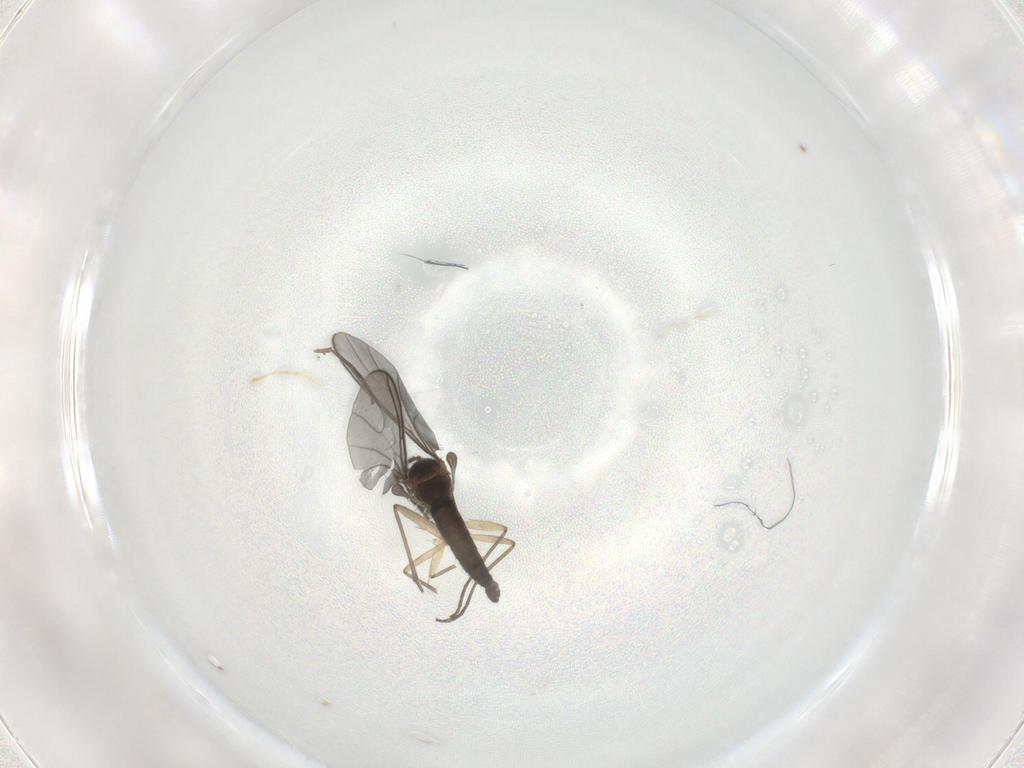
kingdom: Animalia
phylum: Arthropoda
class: Insecta
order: Diptera
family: Sciaridae
